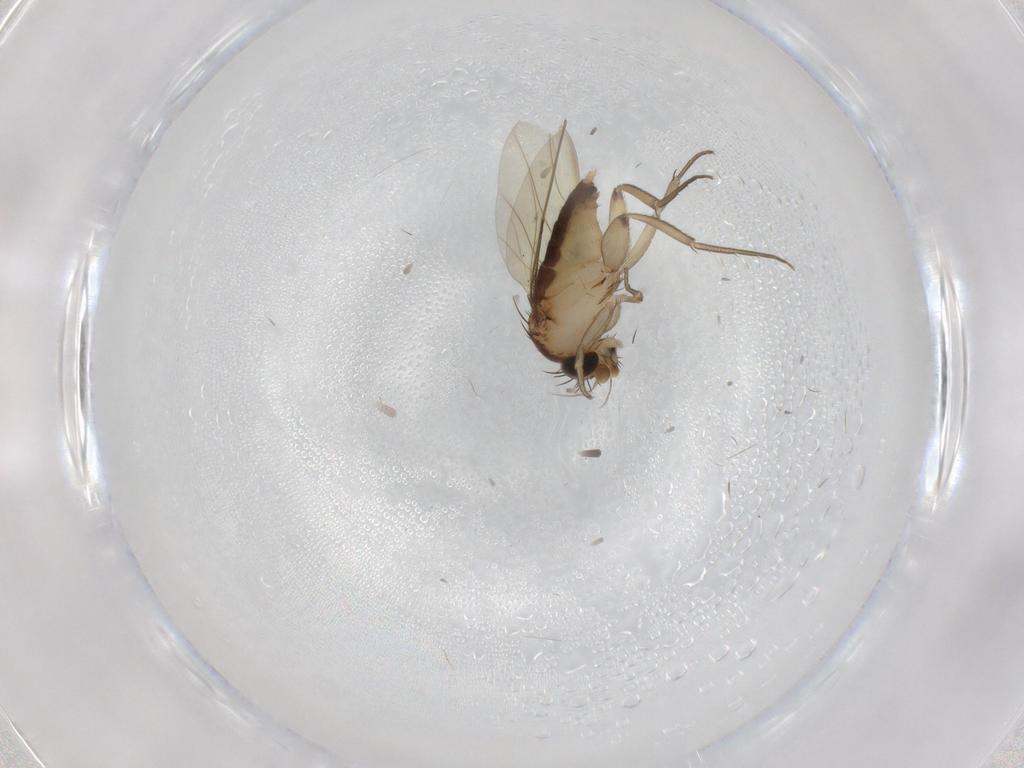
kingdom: Animalia
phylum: Arthropoda
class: Insecta
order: Diptera
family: Phoridae
